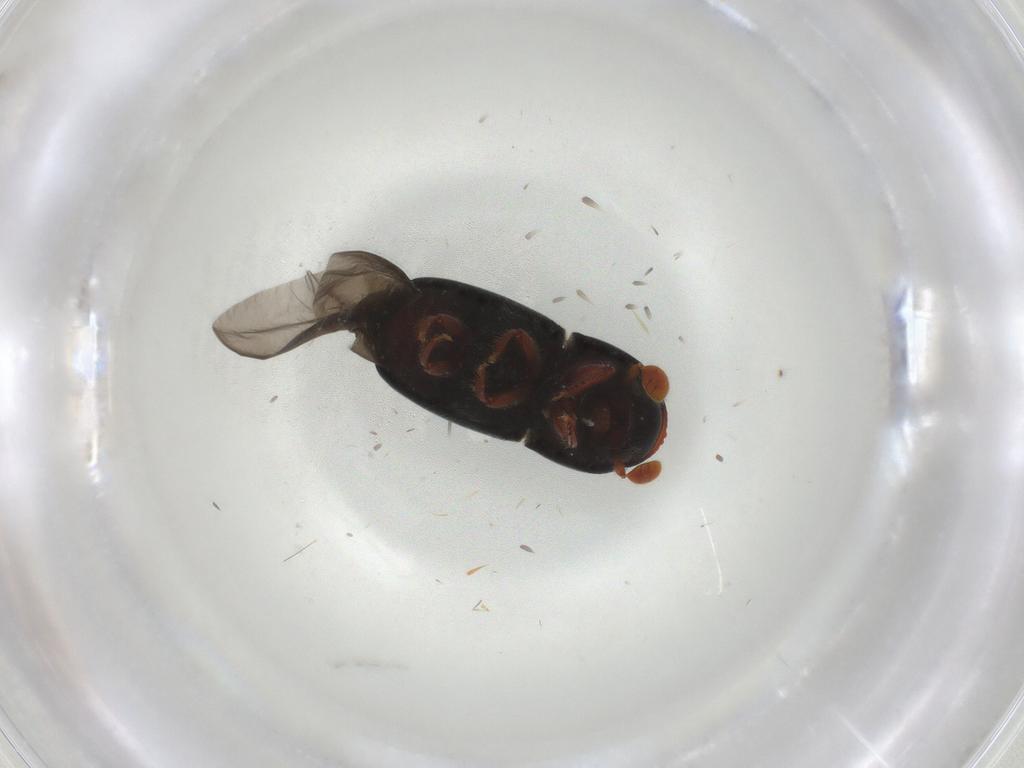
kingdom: Animalia
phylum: Arthropoda
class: Insecta
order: Coleoptera
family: Curculionidae
